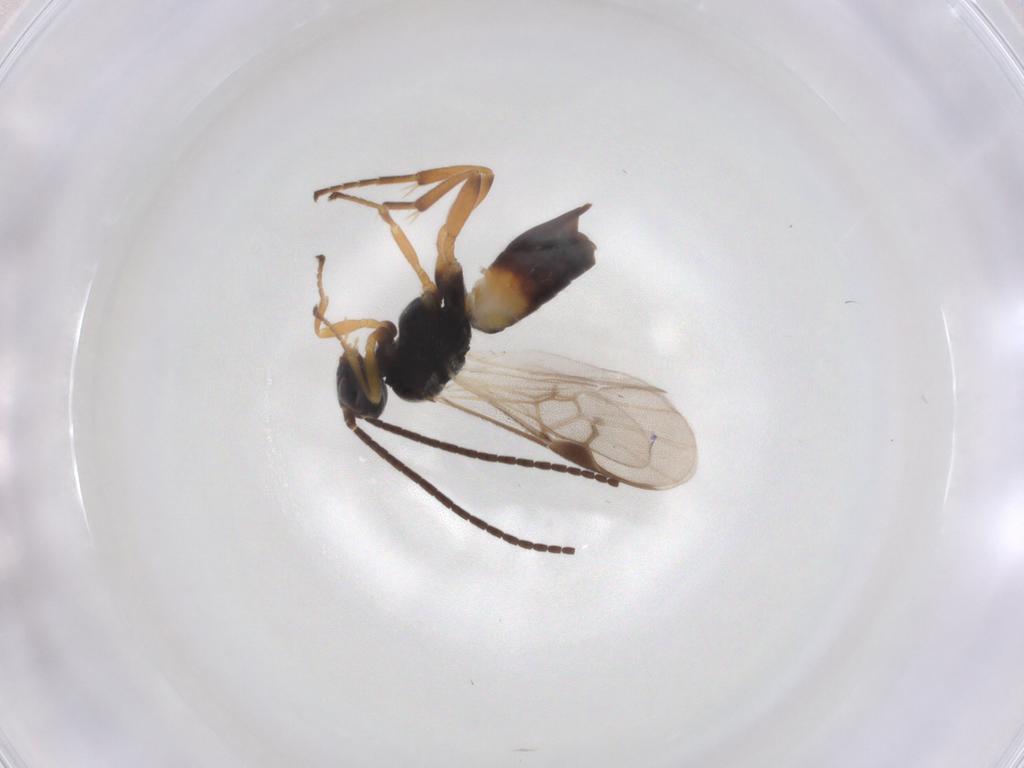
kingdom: Animalia
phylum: Arthropoda
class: Insecta
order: Hymenoptera
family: Braconidae
